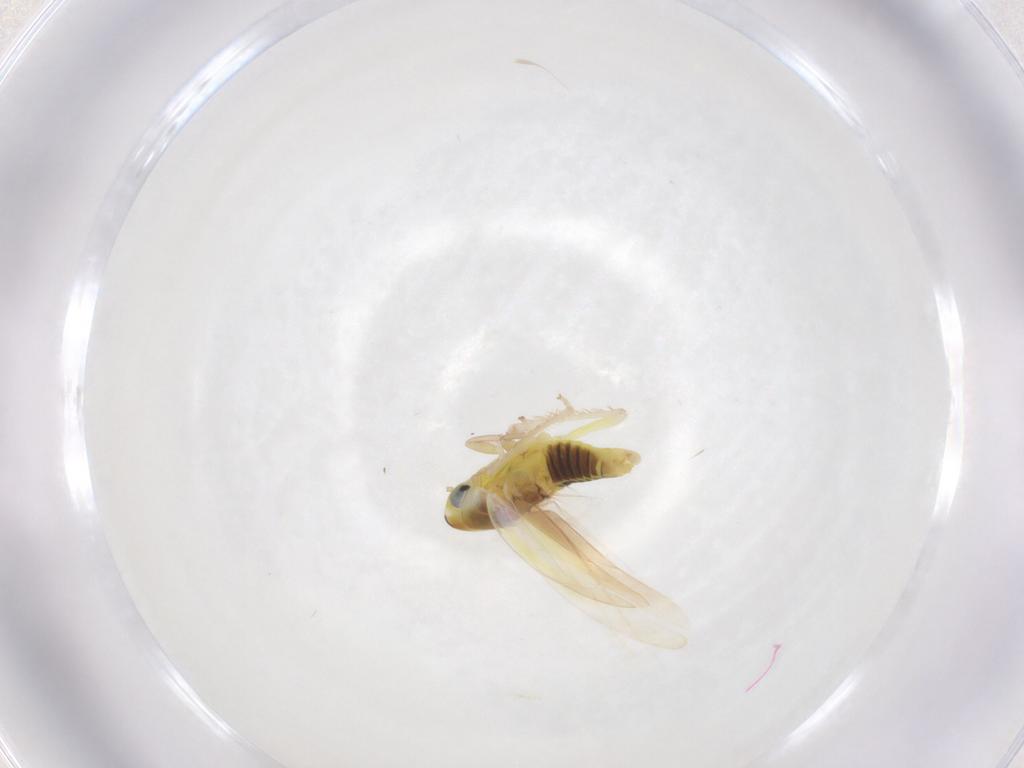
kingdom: Animalia
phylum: Arthropoda
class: Insecta
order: Hemiptera
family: Cicadellidae
